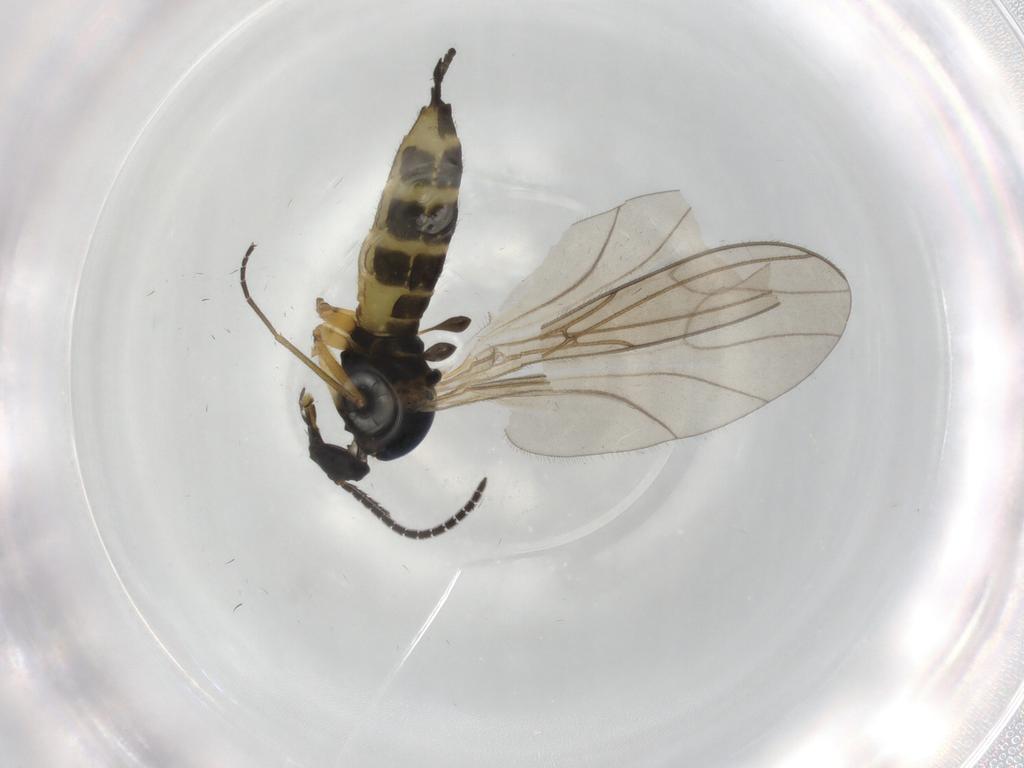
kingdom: Animalia
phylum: Arthropoda
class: Insecta
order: Diptera
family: Sciaridae
